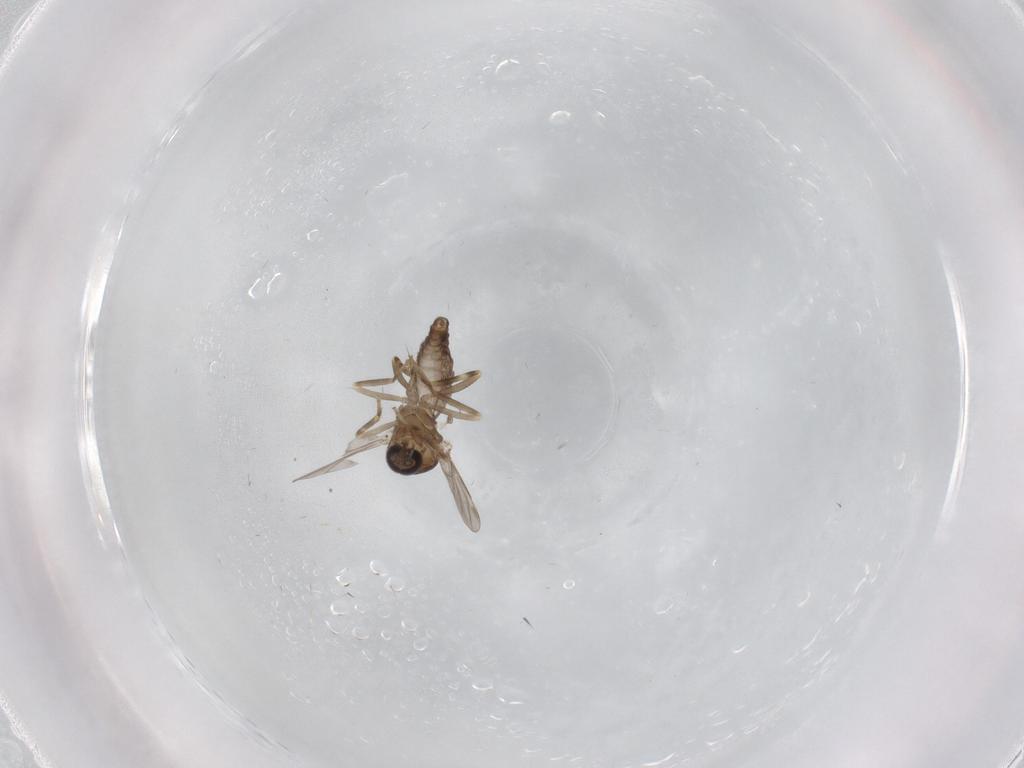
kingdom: Animalia
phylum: Arthropoda
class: Insecta
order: Diptera
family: Ceratopogonidae
